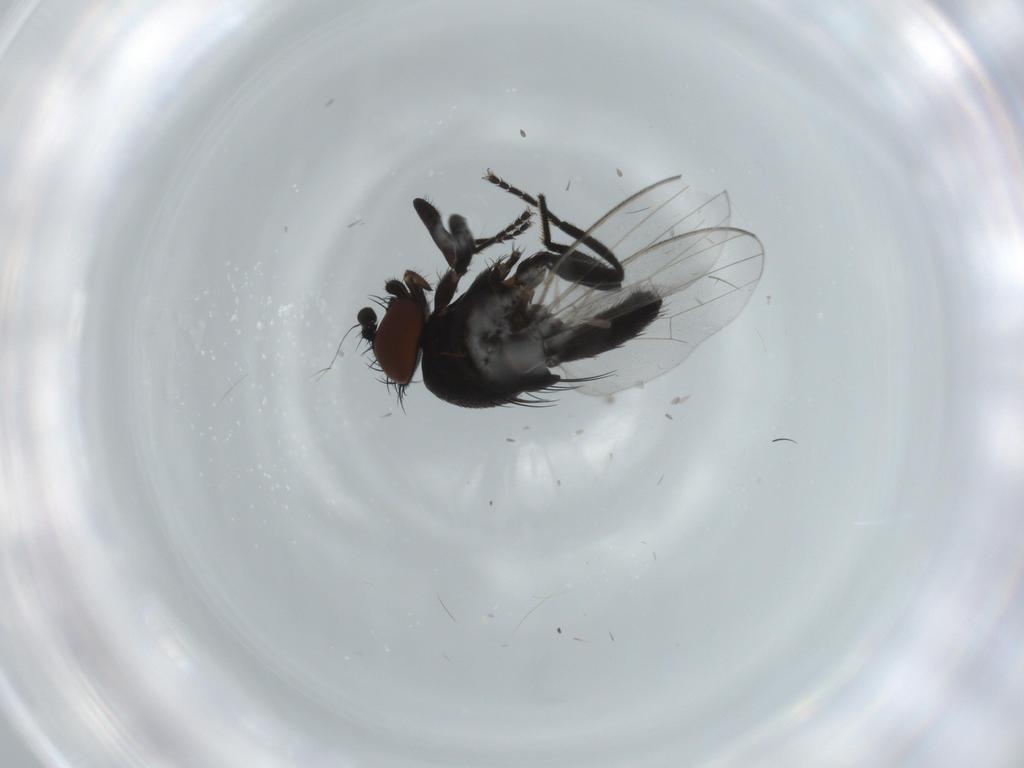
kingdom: Animalia
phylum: Arthropoda
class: Insecta
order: Diptera
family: Milichiidae
